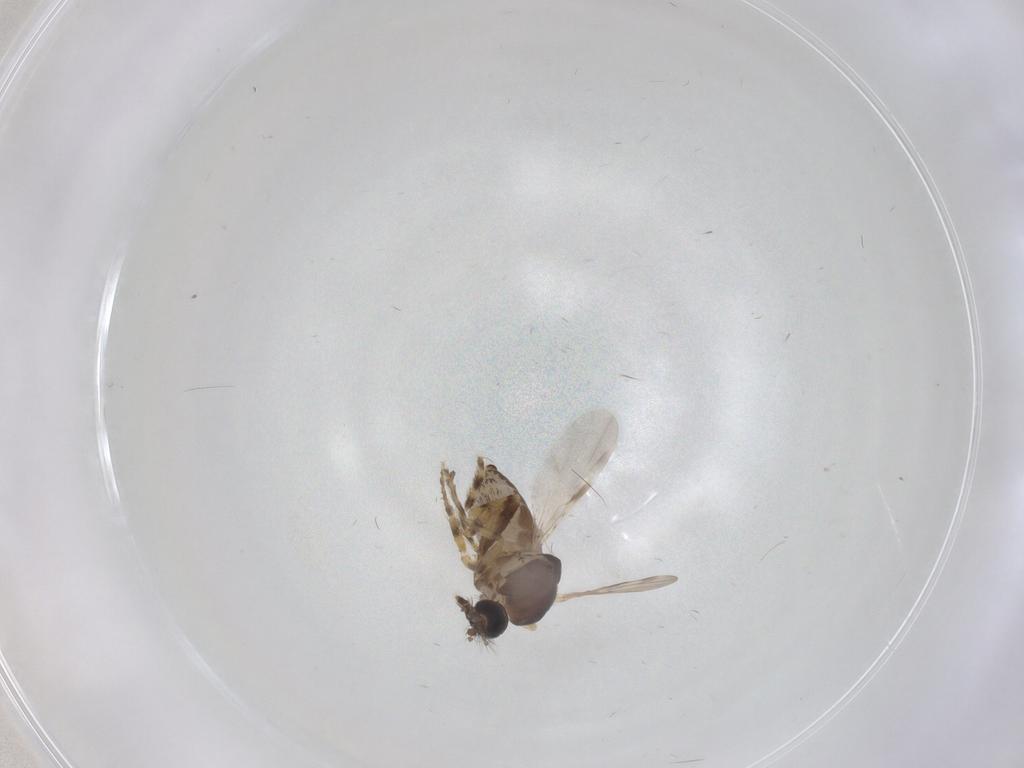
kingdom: Animalia
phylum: Arthropoda
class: Insecta
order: Diptera
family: Ceratopogonidae
